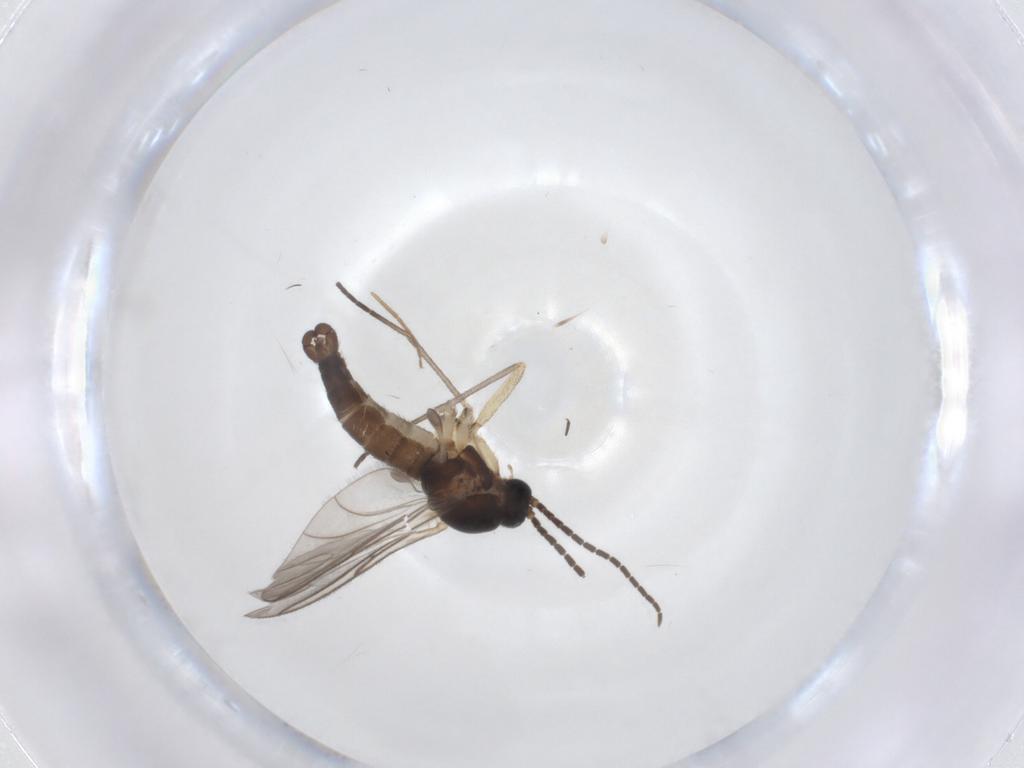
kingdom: Animalia
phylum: Arthropoda
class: Insecta
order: Diptera
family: Sciaridae
